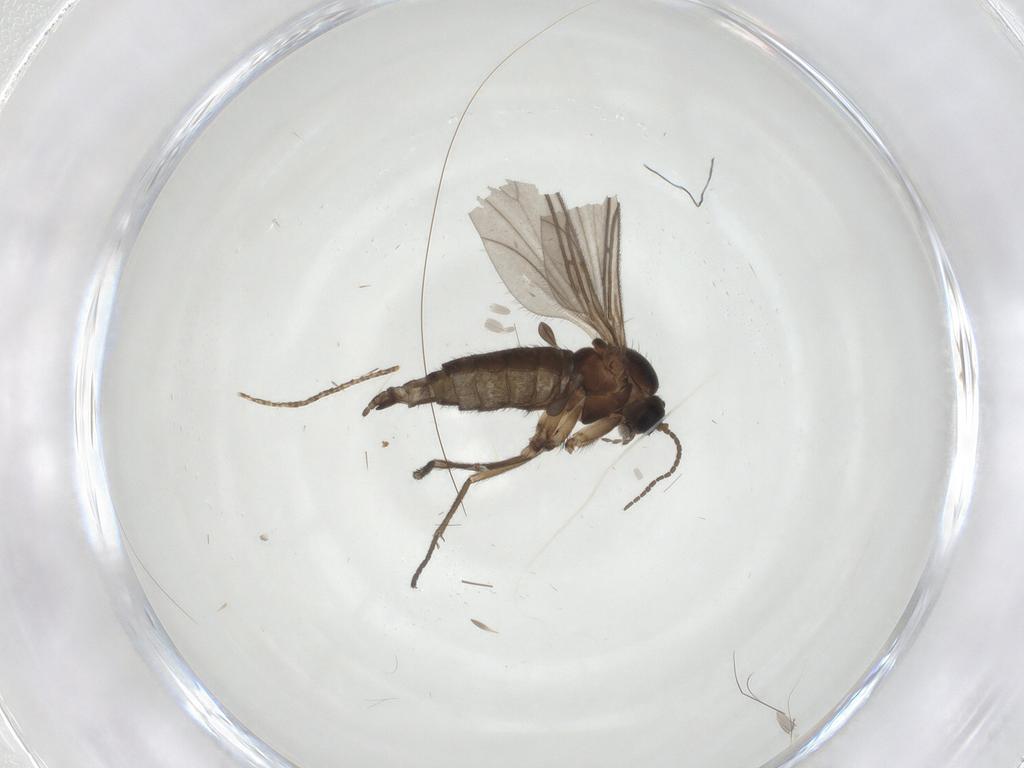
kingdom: Animalia
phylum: Arthropoda
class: Insecta
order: Diptera
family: Sciaridae
